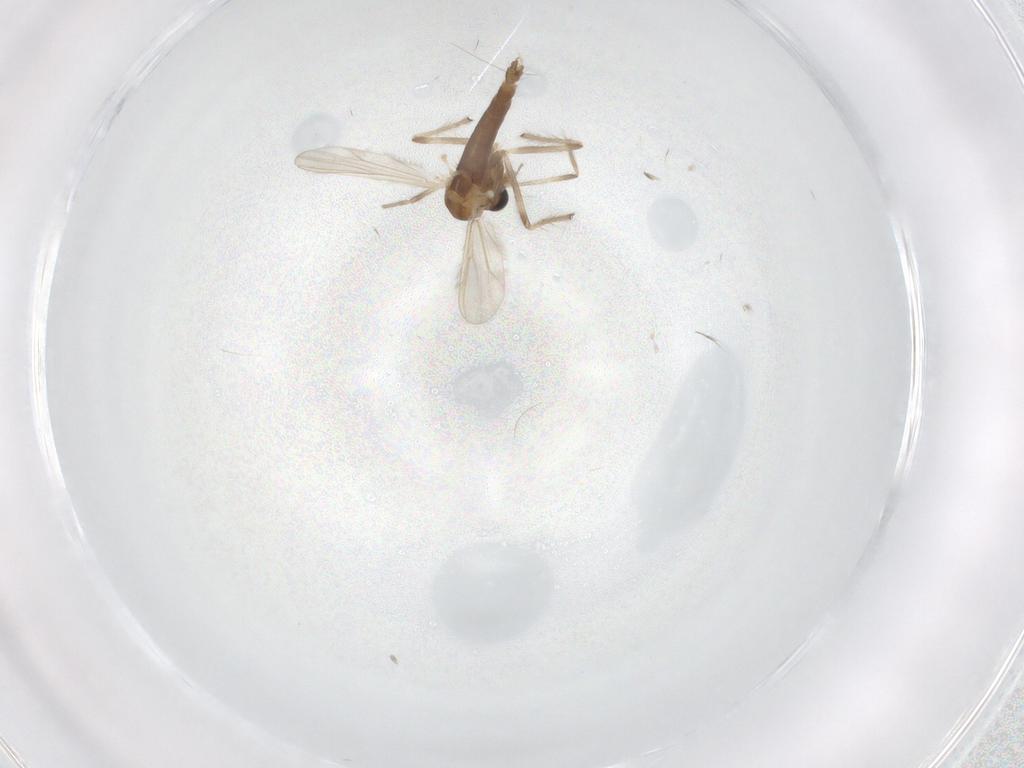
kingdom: Animalia
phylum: Arthropoda
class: Insecta
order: Diptera
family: Chironomidae
